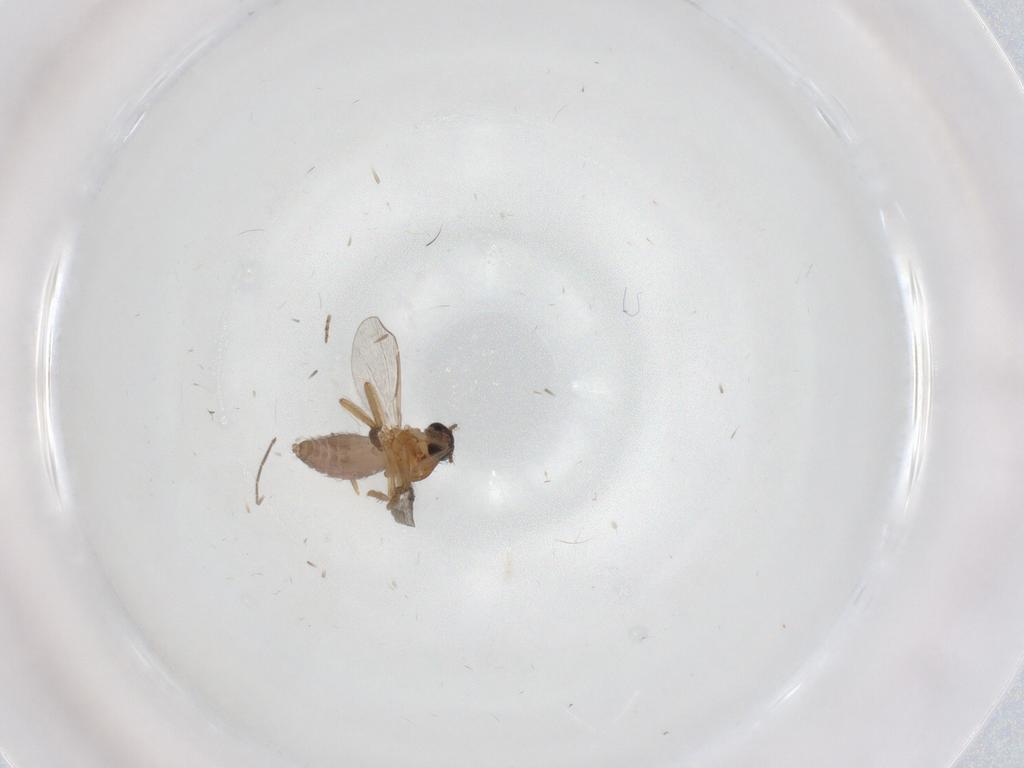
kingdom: Animalia
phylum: Arthropoda
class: Insecta
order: Diptera
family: Ceratopogonidae
